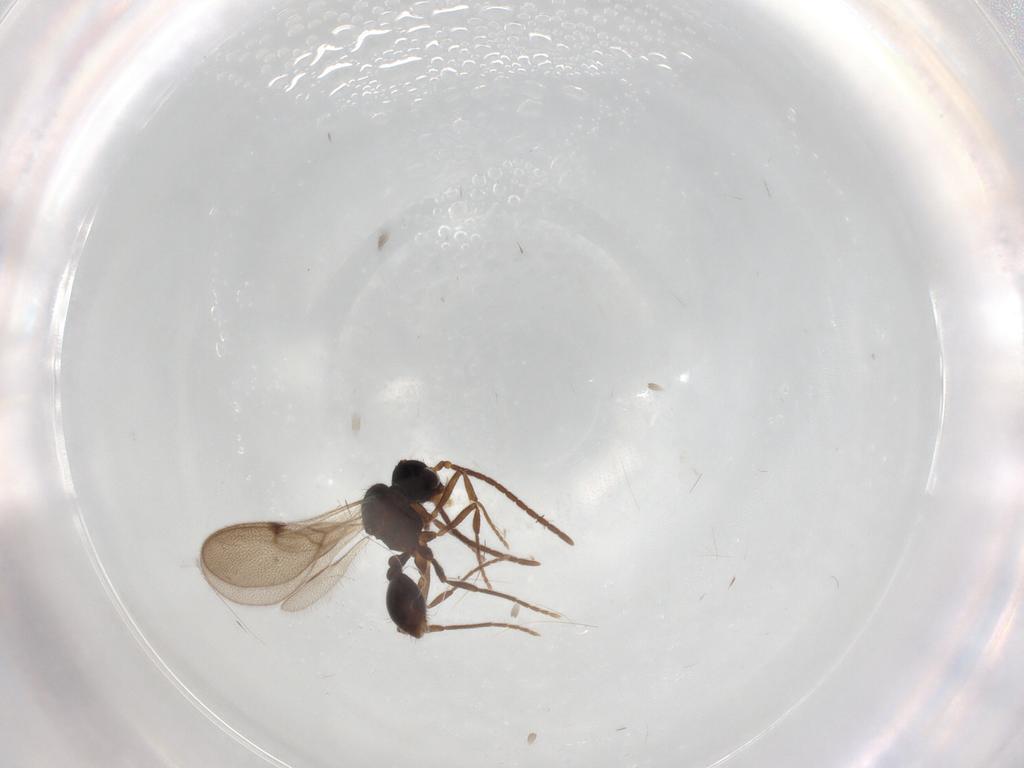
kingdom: Animalia
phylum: Arthropoda
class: Insecta
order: Hymenoptera
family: Formicidae
